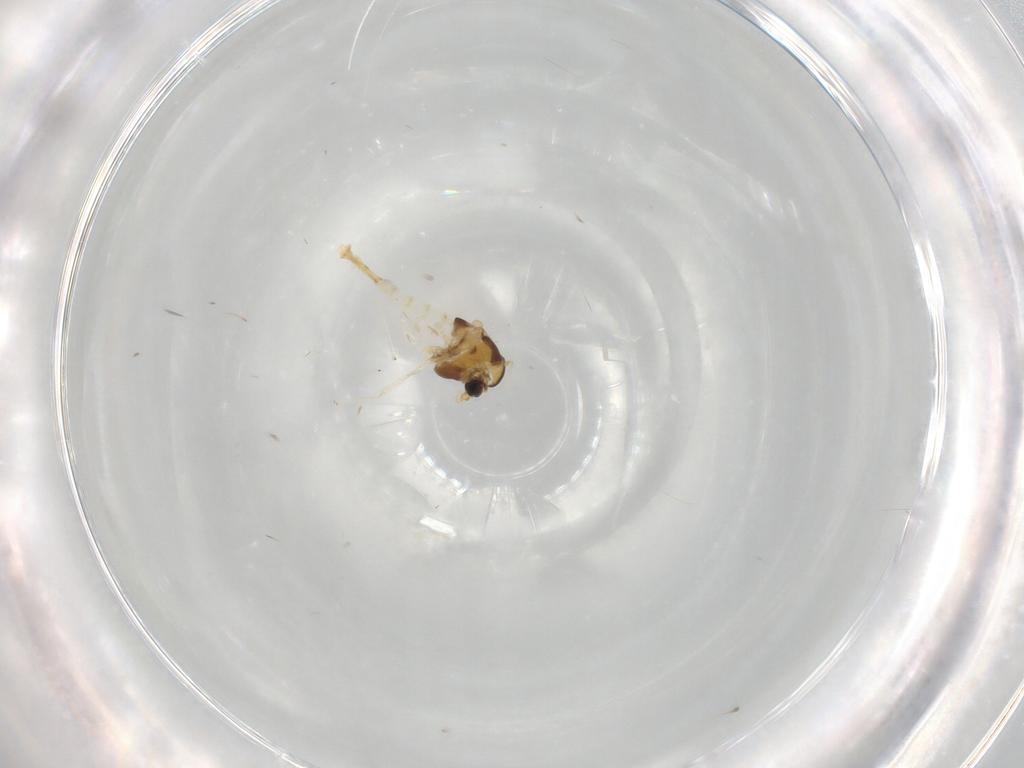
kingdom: Animalia
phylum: Arthropoda
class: Insecta
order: Diptera
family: Chironomidae
